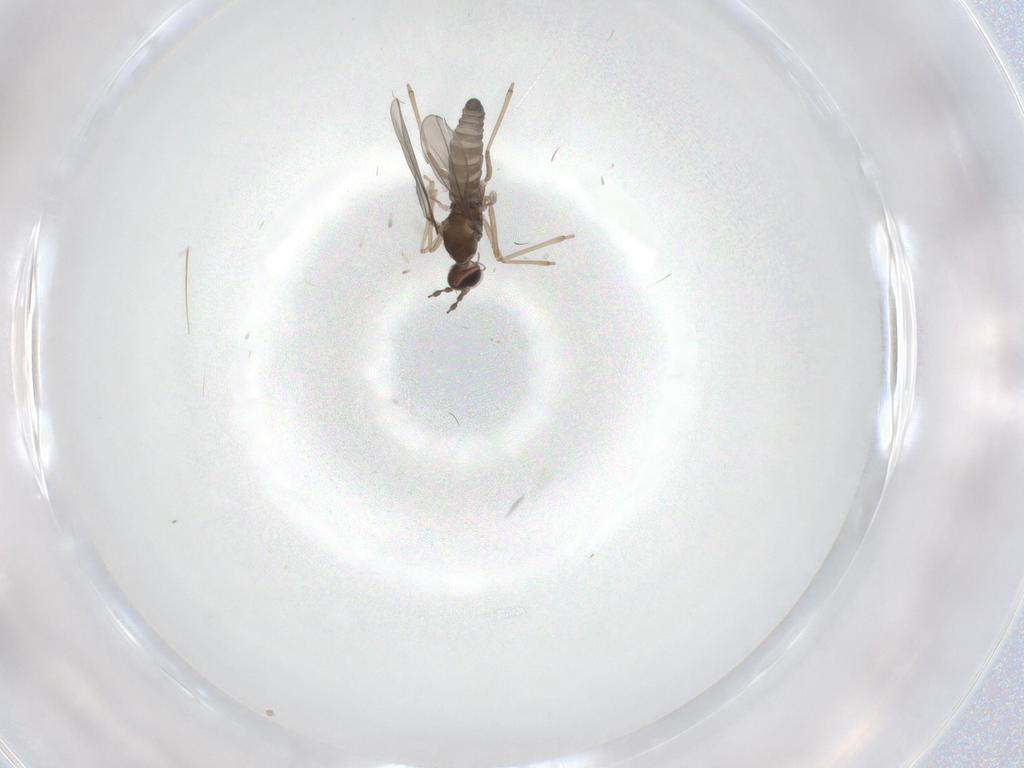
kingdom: Animalia
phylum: Arthropoda
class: Insecta
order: Diptera
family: Cecidomyiidae
